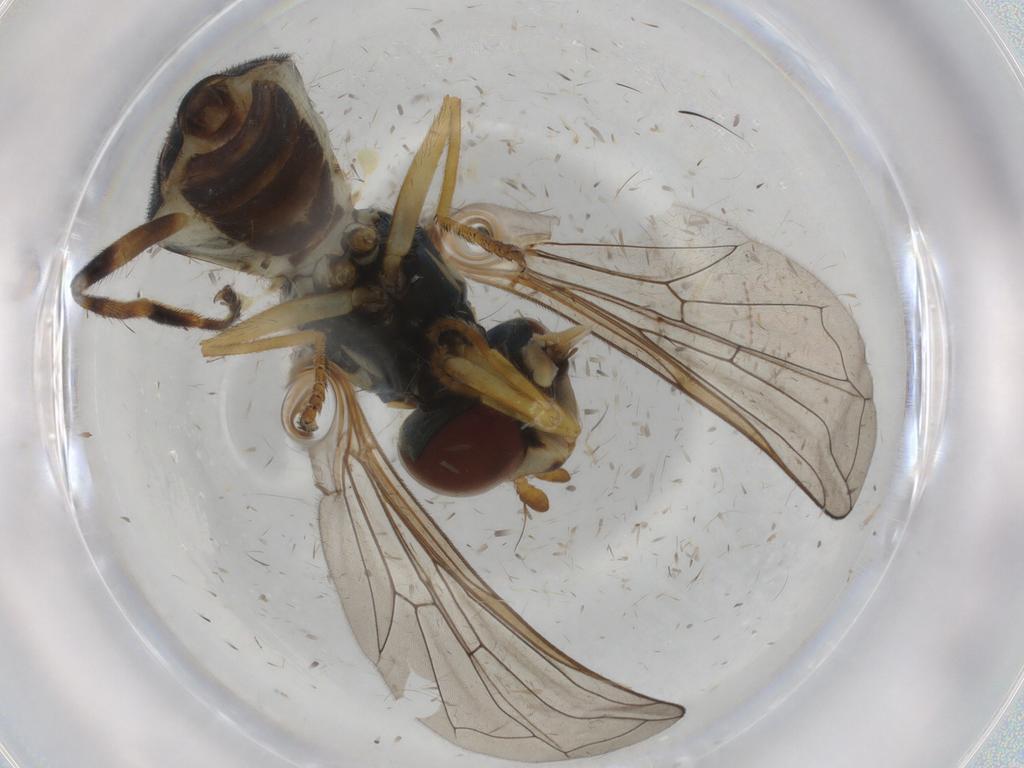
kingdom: Animalia
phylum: Arthropoda
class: Insecta
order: Diptera
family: Syrphidae
